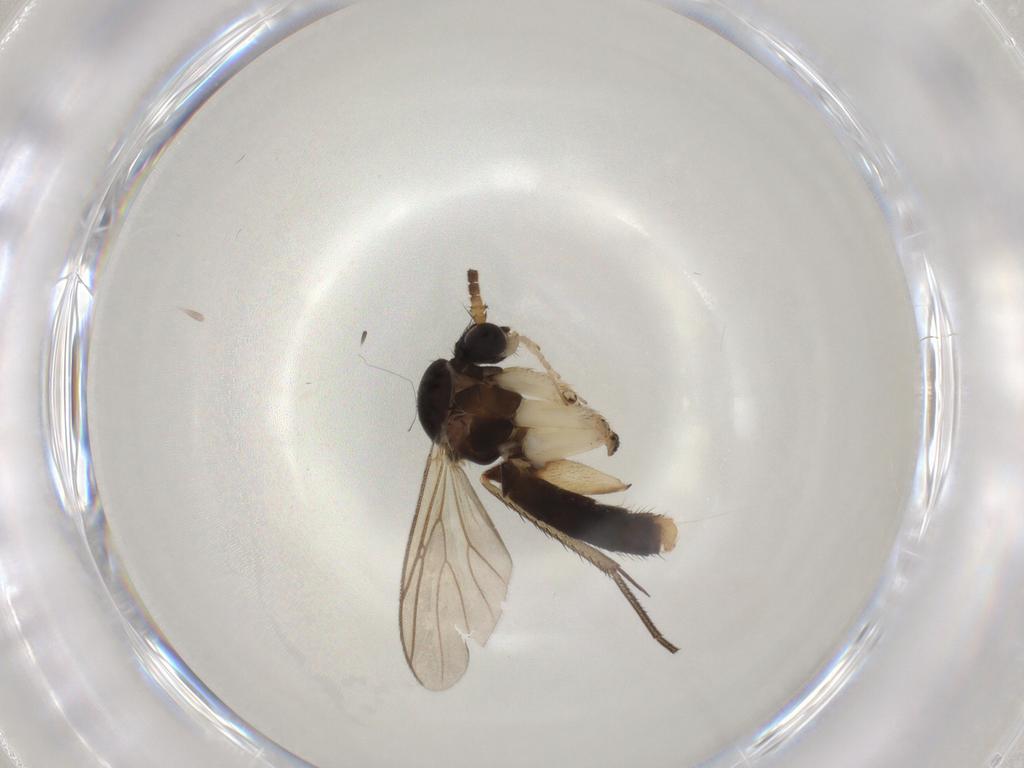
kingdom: Animalia
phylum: Arthropoda
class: Insecta
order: Diptera
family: Mycetophilidae
